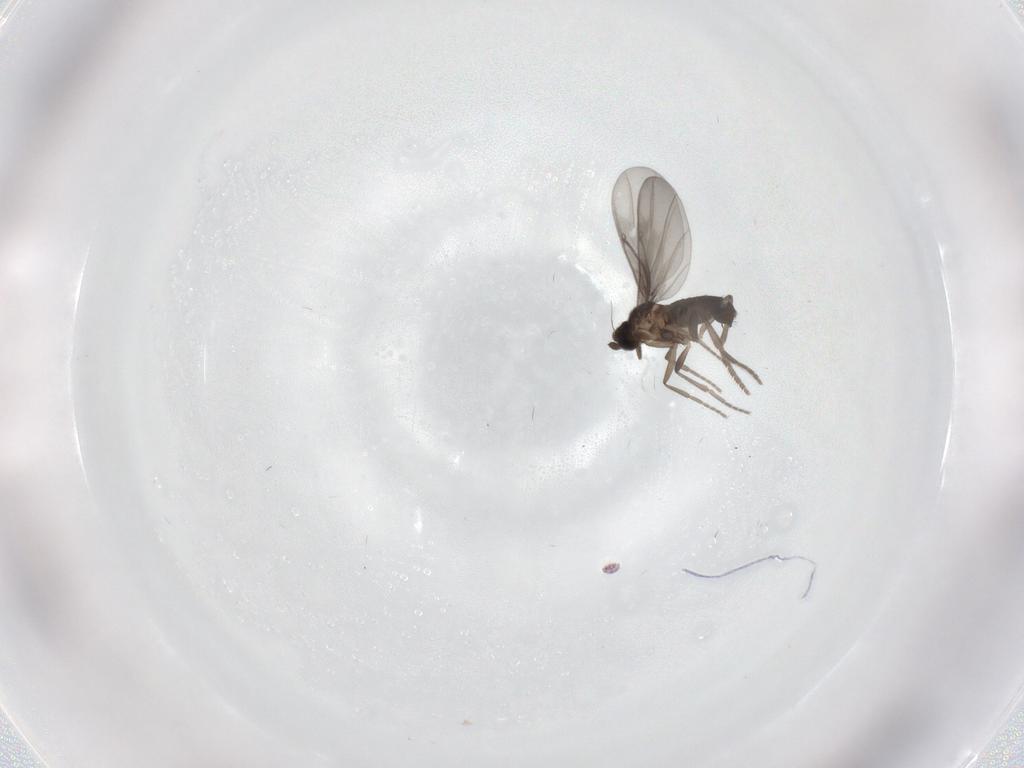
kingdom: Animalia
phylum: Arthropoda
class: Insecta
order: Diptera
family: Phoridae
